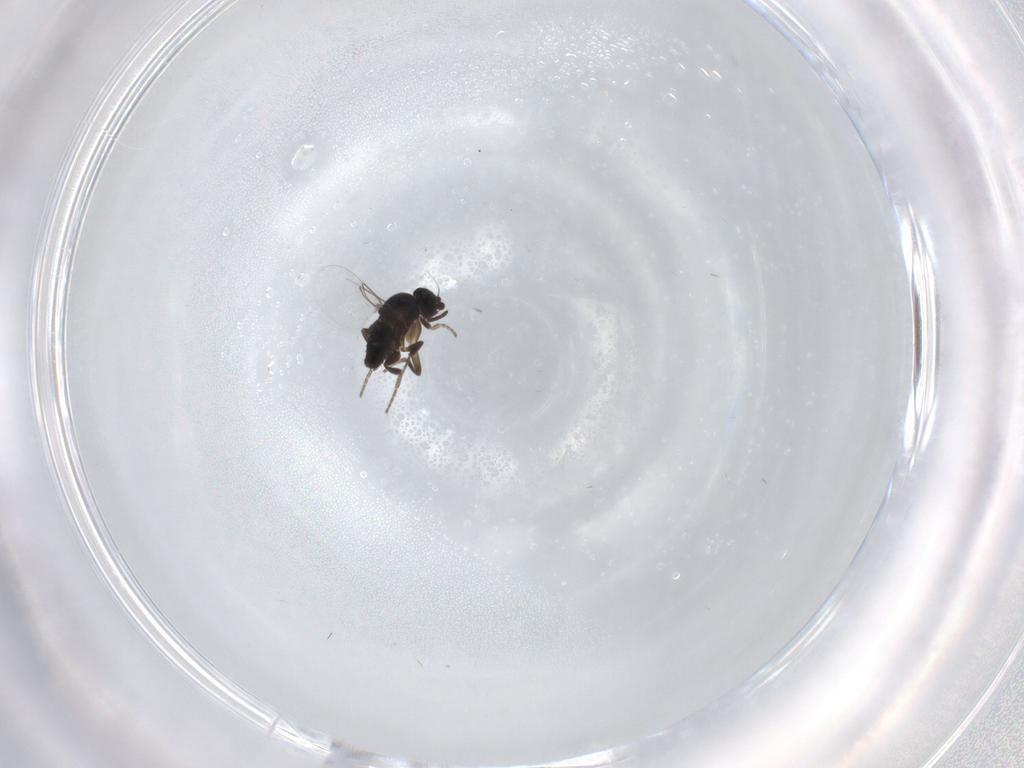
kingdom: Animalia
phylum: Arthropoda
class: Insecta
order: Diptera
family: Phoridae
